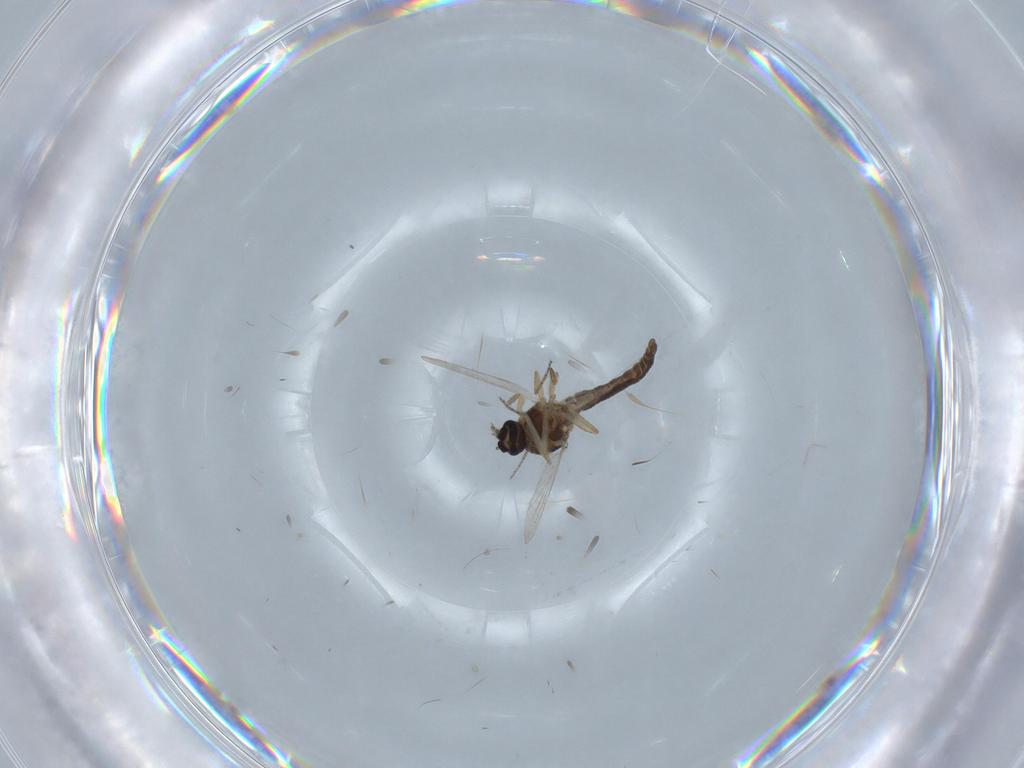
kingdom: Animalia
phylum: Arthropoda
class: Insecta
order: Diptera
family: Ceratopogonidae
